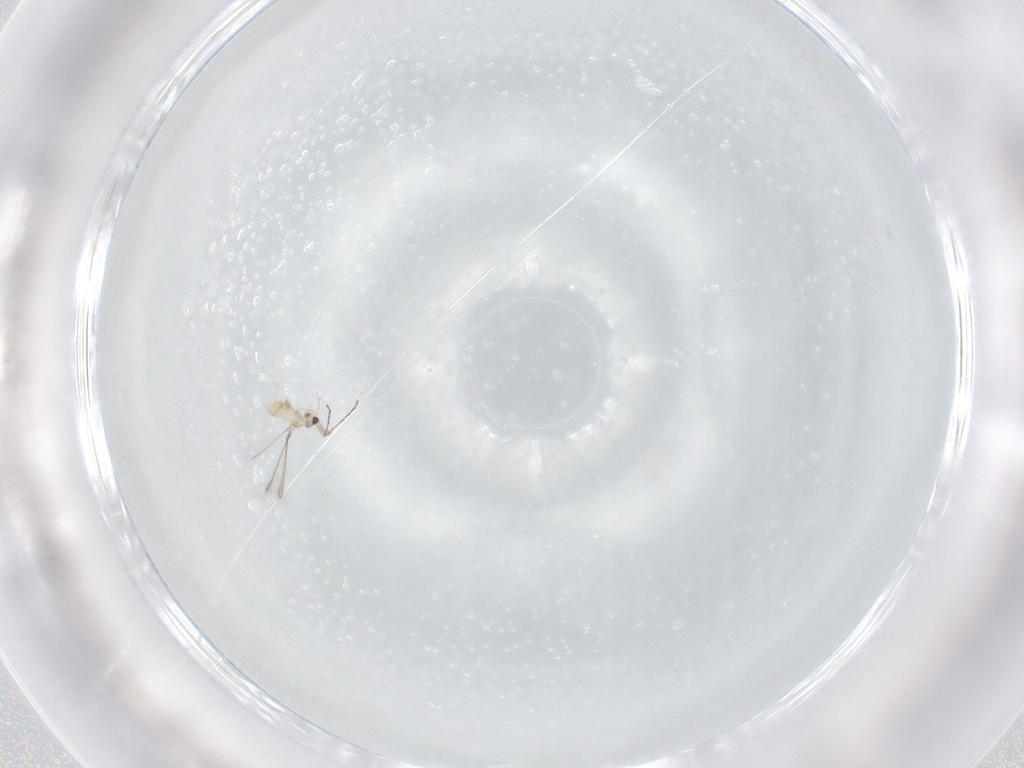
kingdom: Animalia
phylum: Arthropoda
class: Insecta
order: Hymenoptera
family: Mymaridae
